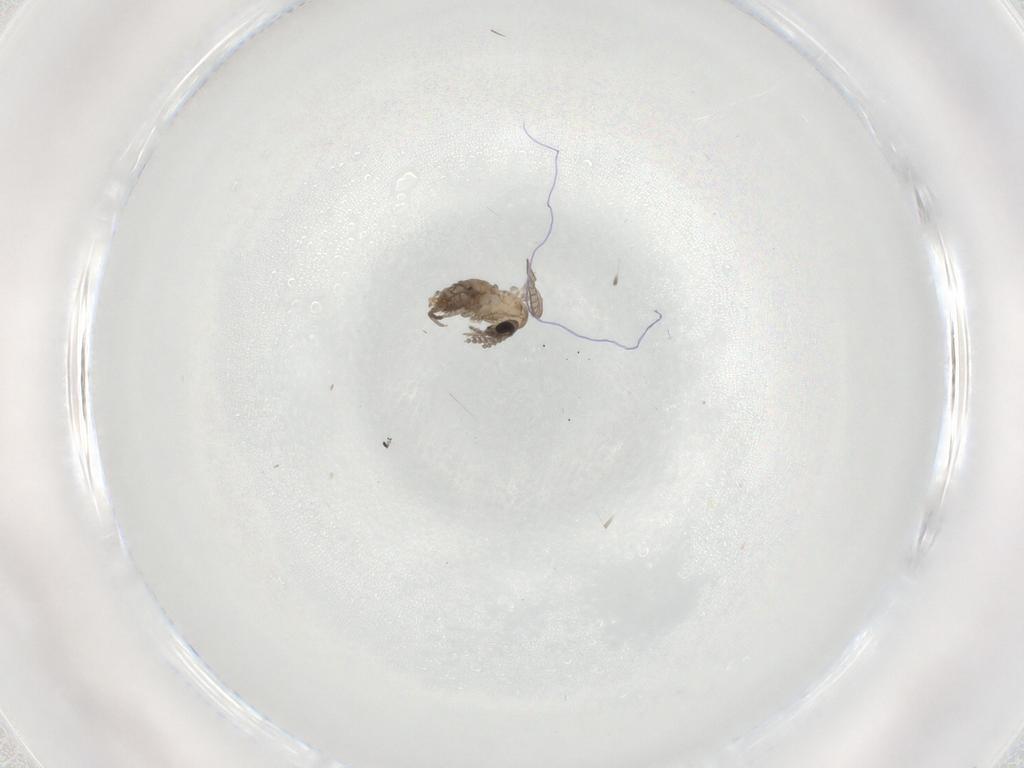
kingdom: Animalia
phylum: Arthropoda
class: Insecta
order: Diptera
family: Psychodidae
